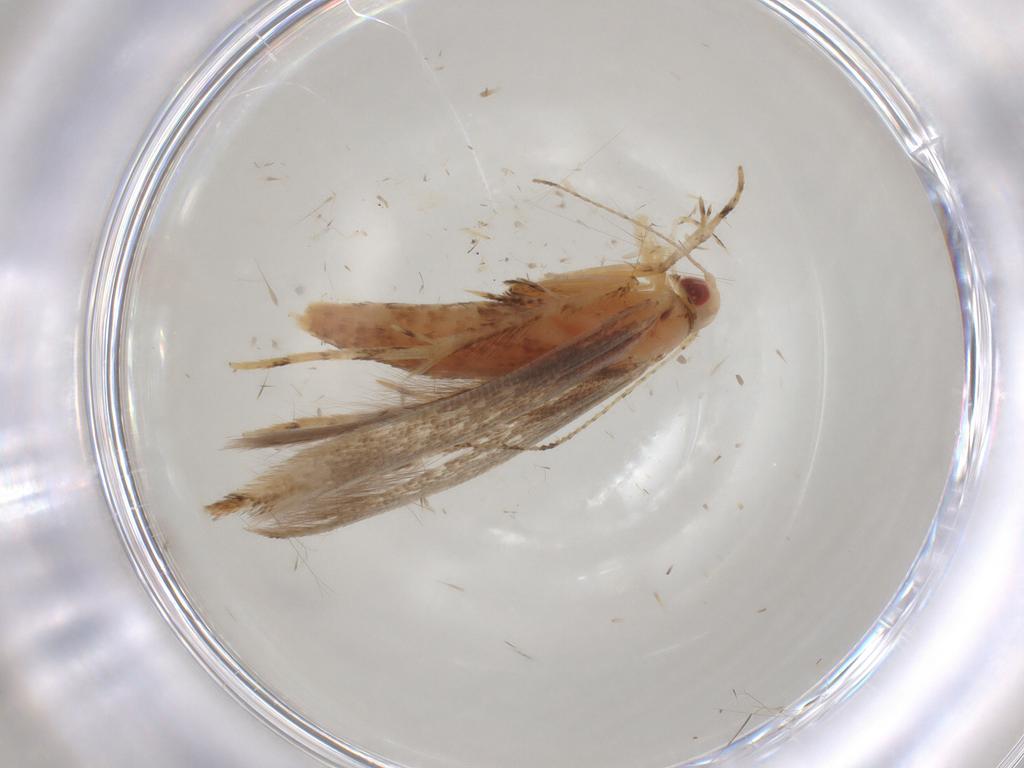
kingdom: Animalia
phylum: Arthropoda
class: Insecta
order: Lepidoptera
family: Cosmopterigidae
